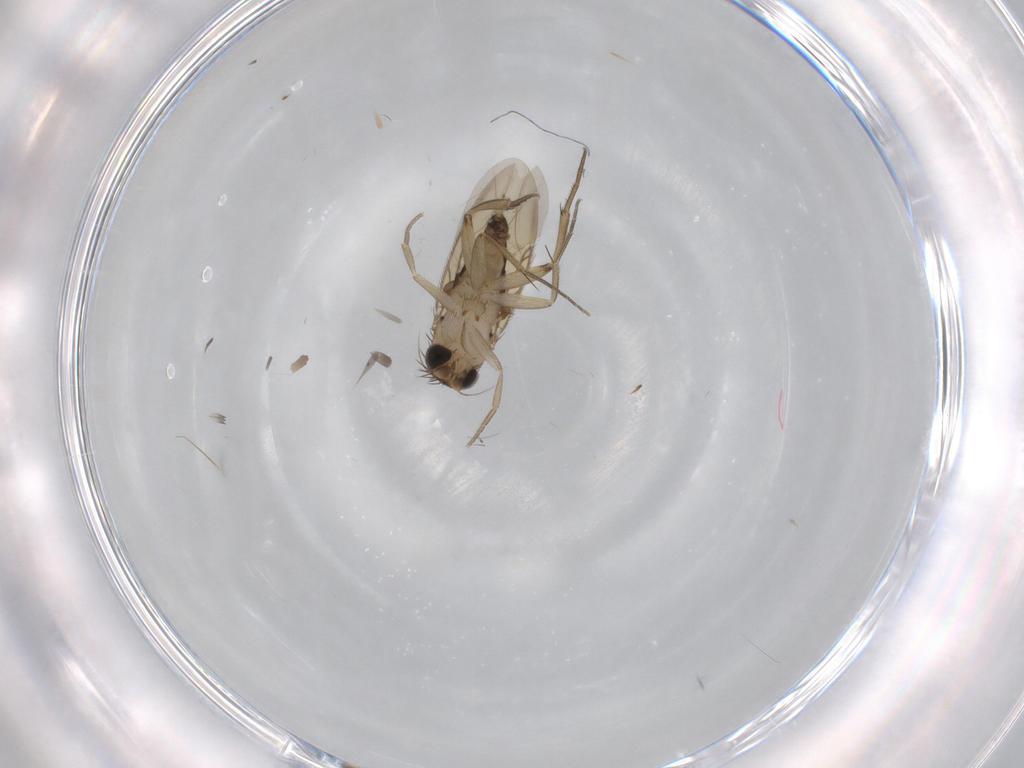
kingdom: Animalia
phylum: Arthropoda
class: Insecta
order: Diptera
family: Phoridae
